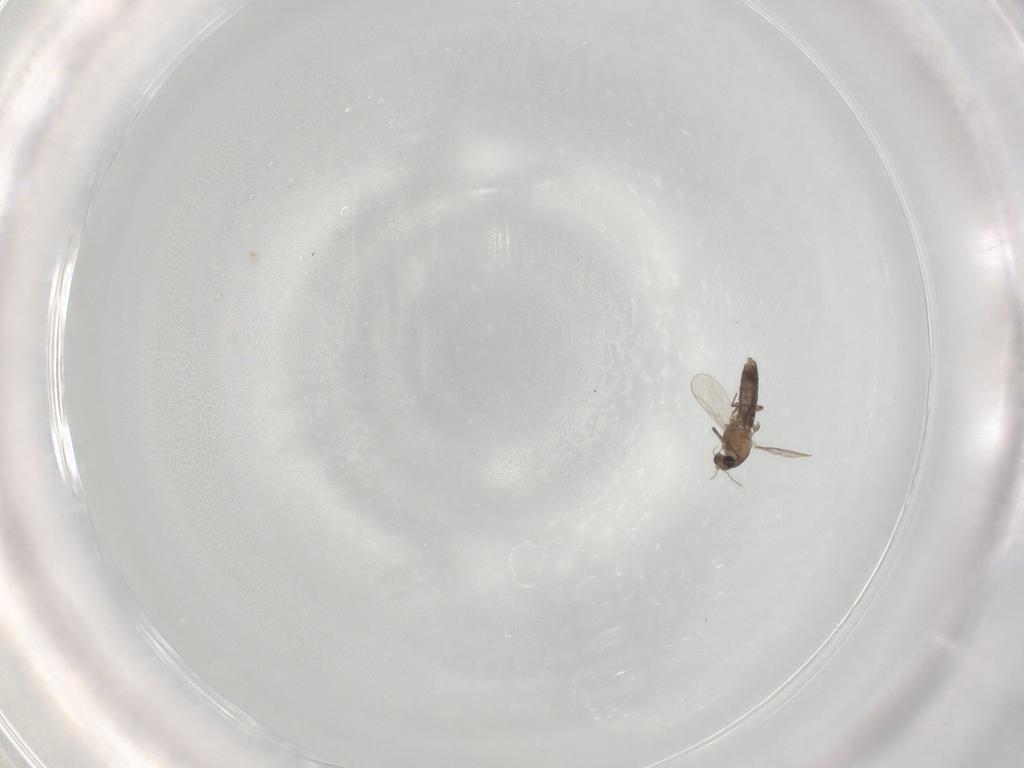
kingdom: Animalia
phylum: Arthropoda
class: Insecta
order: Diptera
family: Chironomidae
